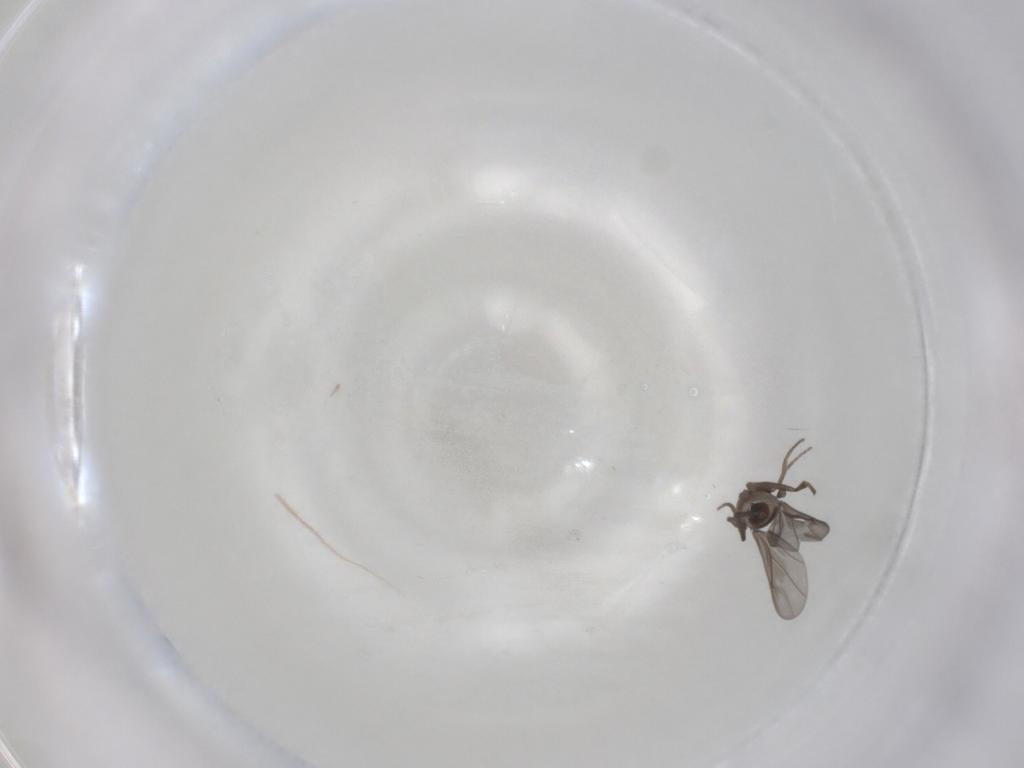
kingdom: Animalia
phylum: Arthropoda
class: Insecta
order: Diptera
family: Phoridae
